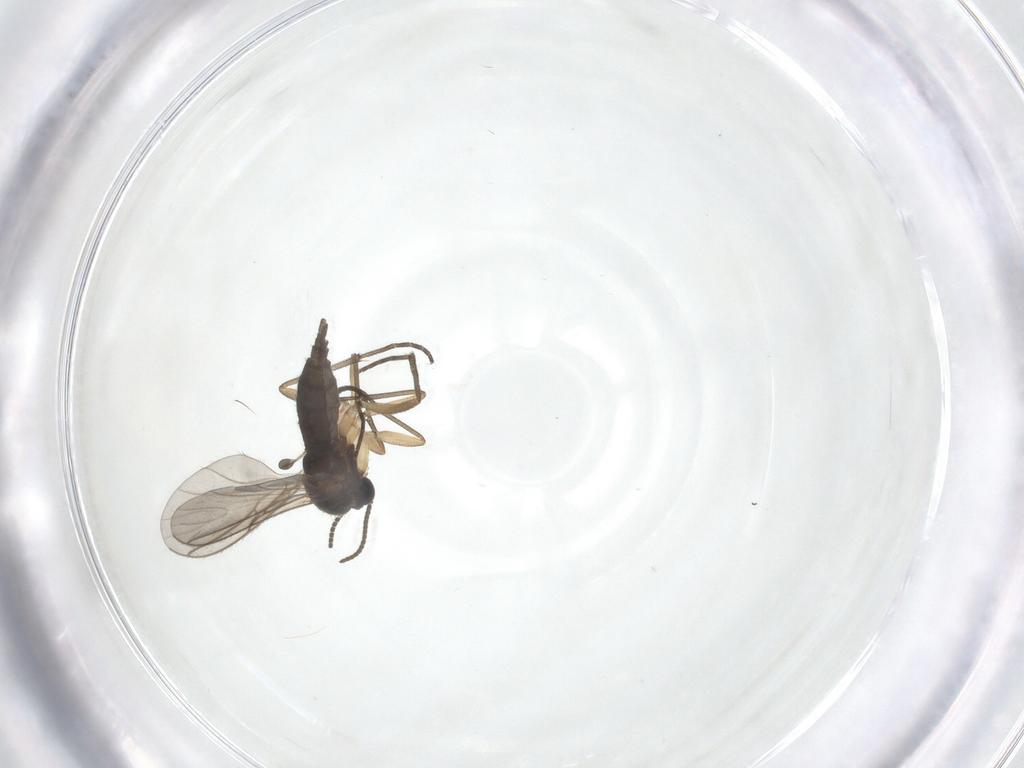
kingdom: Animalia
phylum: Arthropoda
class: Insecta
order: Diptera
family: Sciaridae
